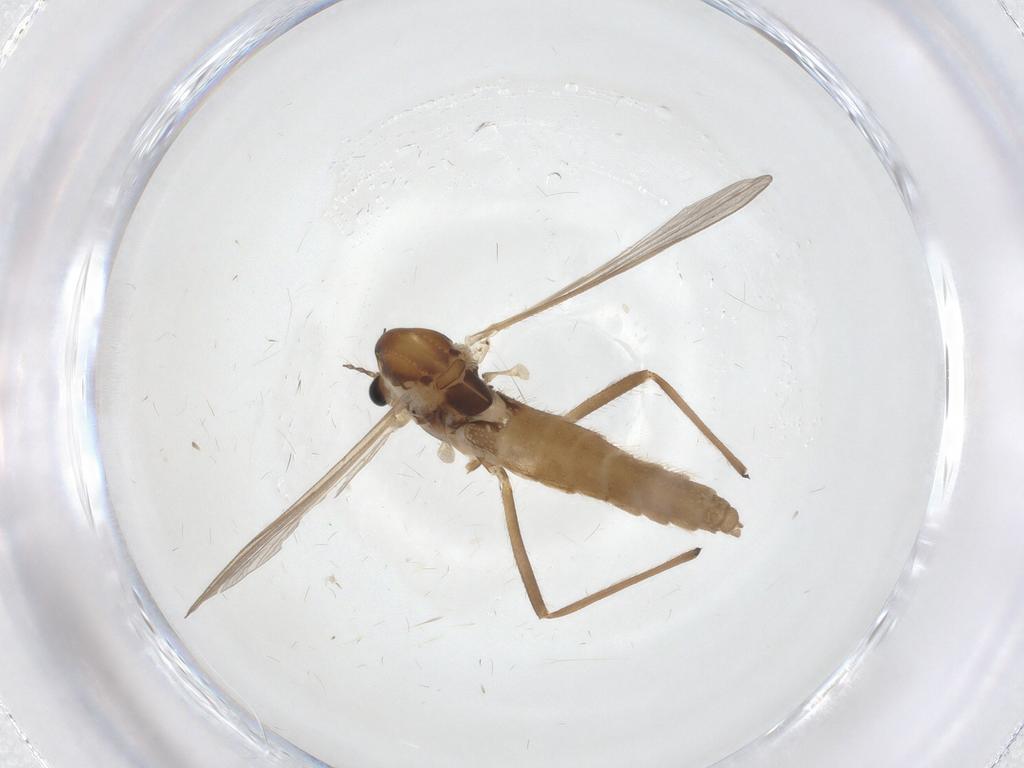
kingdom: Animalia
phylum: Arthropoda
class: Insecta
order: Diptera
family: Chironomidae
